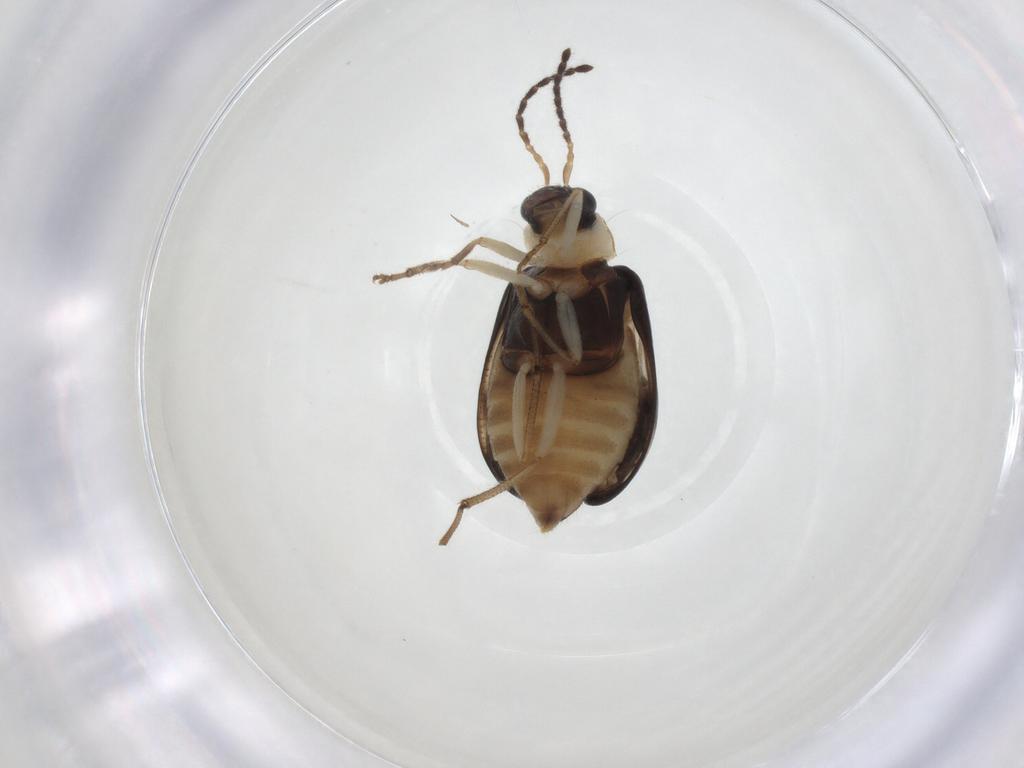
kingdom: Animalia
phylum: Arthropoda
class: Insecta
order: Coleoptera
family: Chrysomelidae
